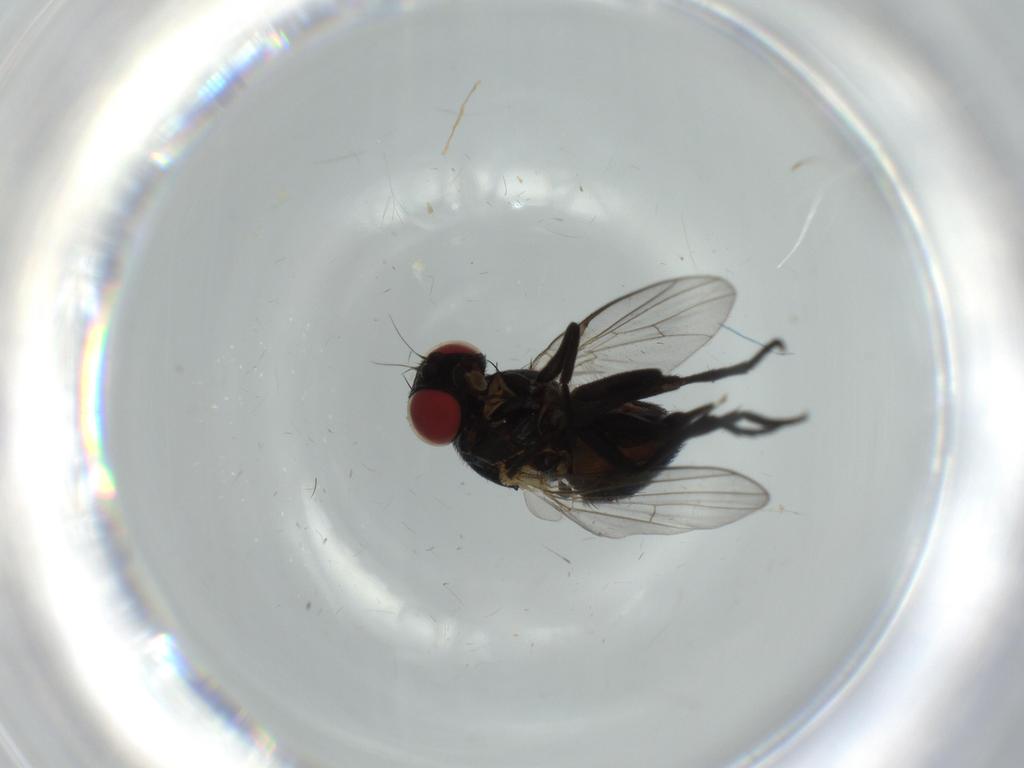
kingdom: Animalia
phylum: Arthropoda
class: Insecta
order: Diptera
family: Agromyzidae
